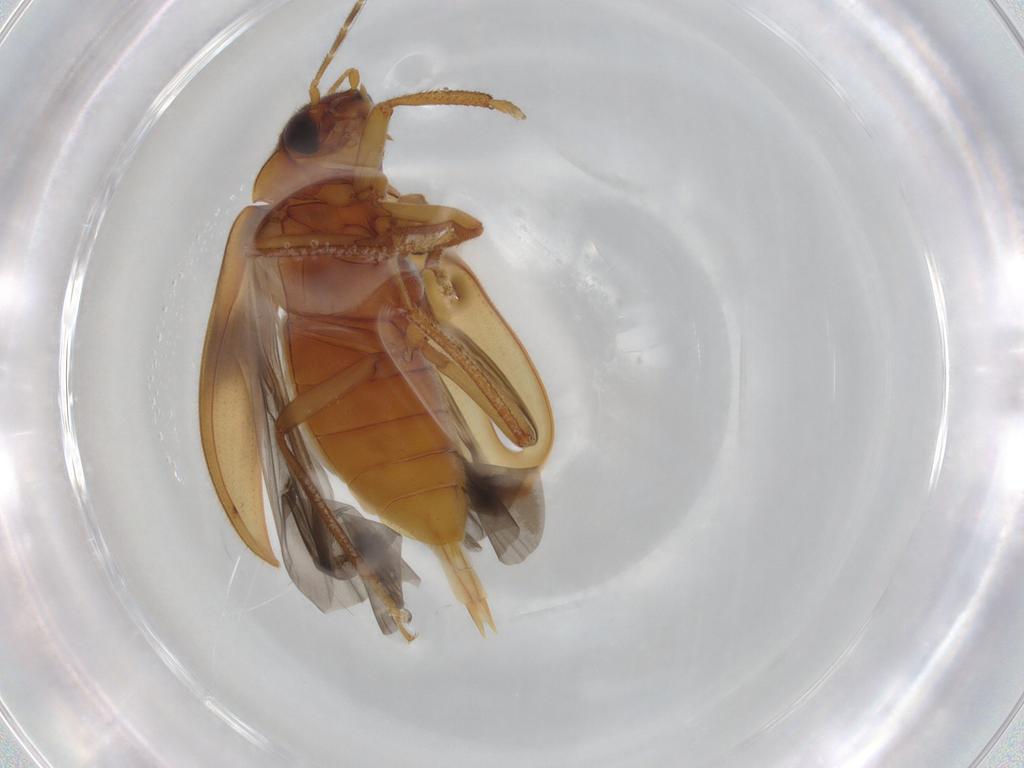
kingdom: Animalia
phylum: Arthropoda
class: Insecta
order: Coleoptera
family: Ptilodactylidae
